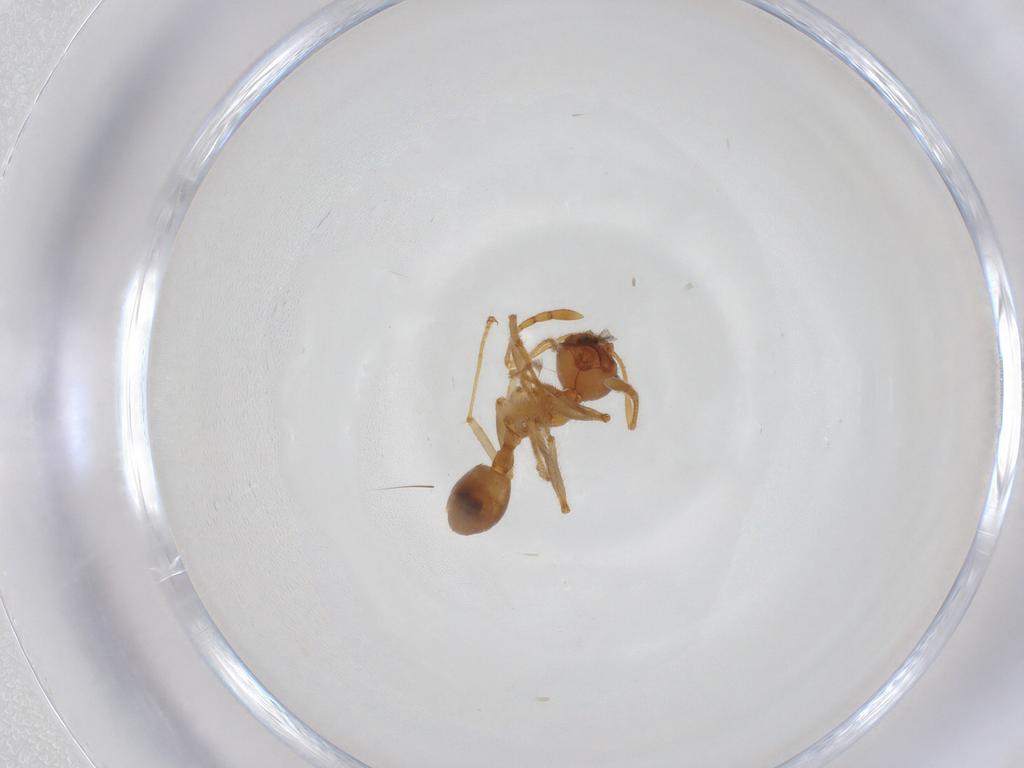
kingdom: Animalia
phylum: Arthropoda
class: Insecta
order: Hymenoptera
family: Formicidae
